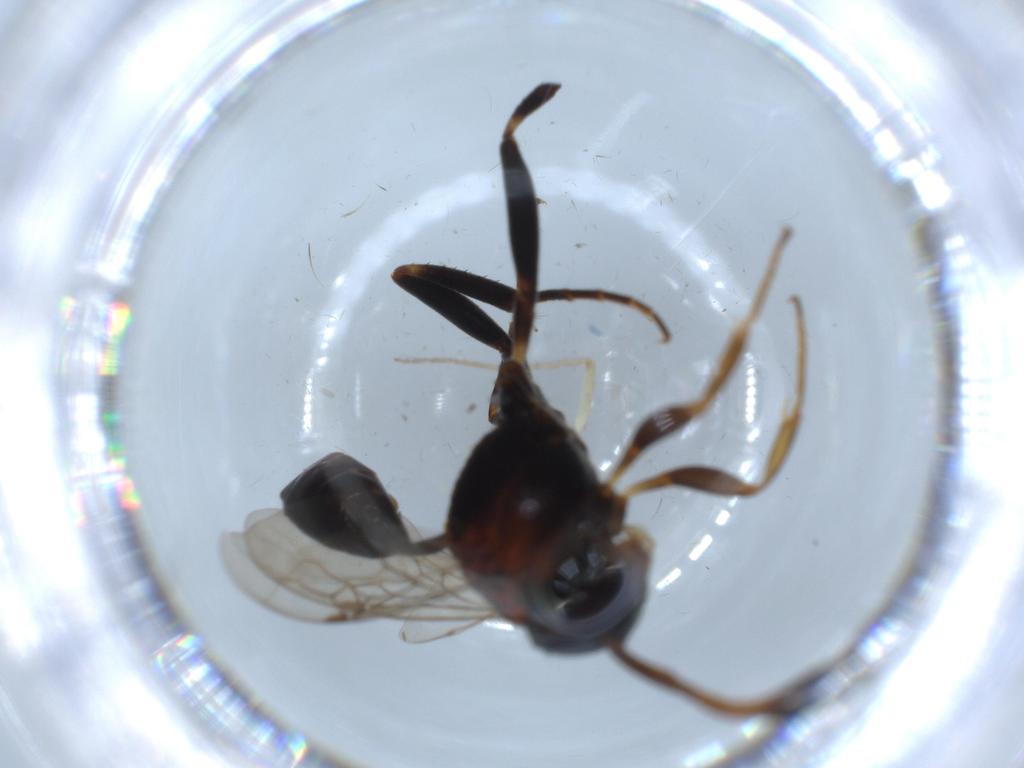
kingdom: Animalia
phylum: Arthropoda
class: Insecta
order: Hymenoptera
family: Evaniidae
